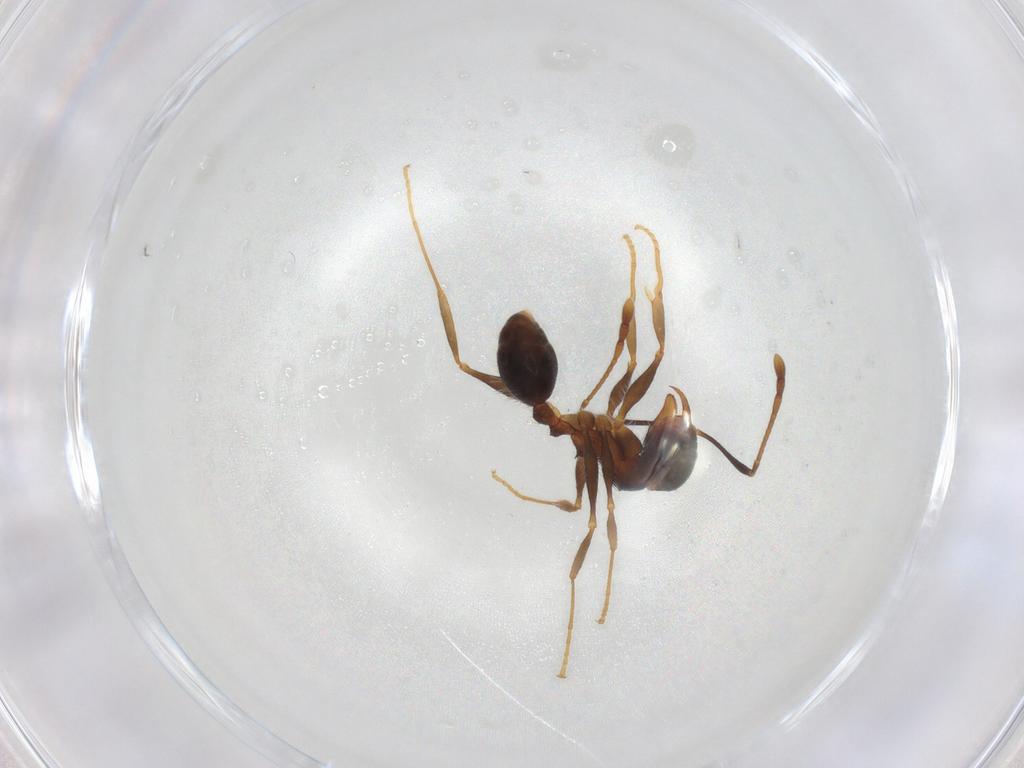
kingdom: Animalia
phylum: Arthropoda
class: Insecta
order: Hymenoptera
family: Formicidae
